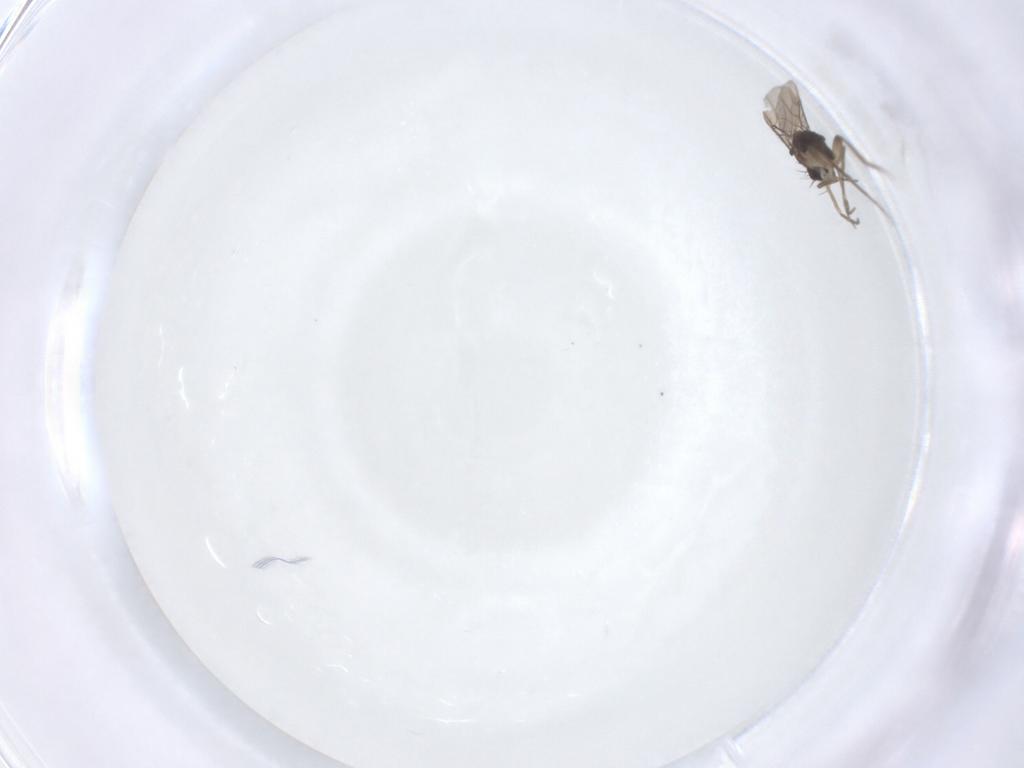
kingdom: Animalia
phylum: Arthropoda
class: Insecta
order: Diptera
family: Phoridae
